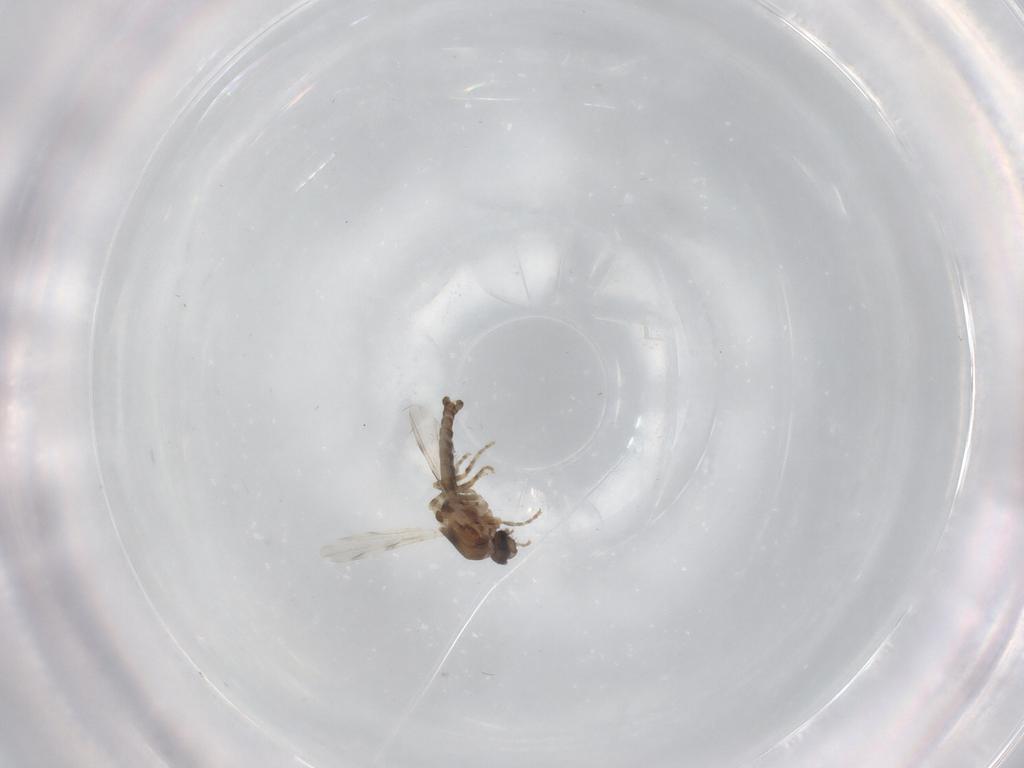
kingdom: Animalia
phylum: Arthropoda
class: Insecta
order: Diptera
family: Ceratopogonidae
